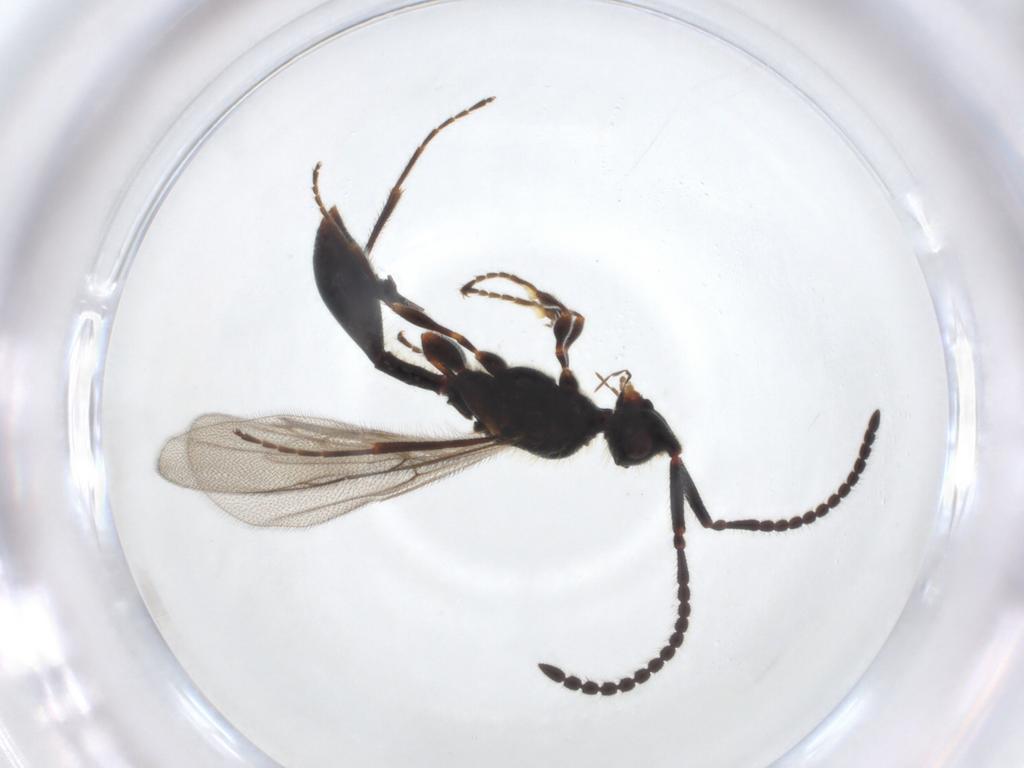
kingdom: Animalia
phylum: Arthropoda
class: Insecta
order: Hymenoptera
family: Diapriidae
